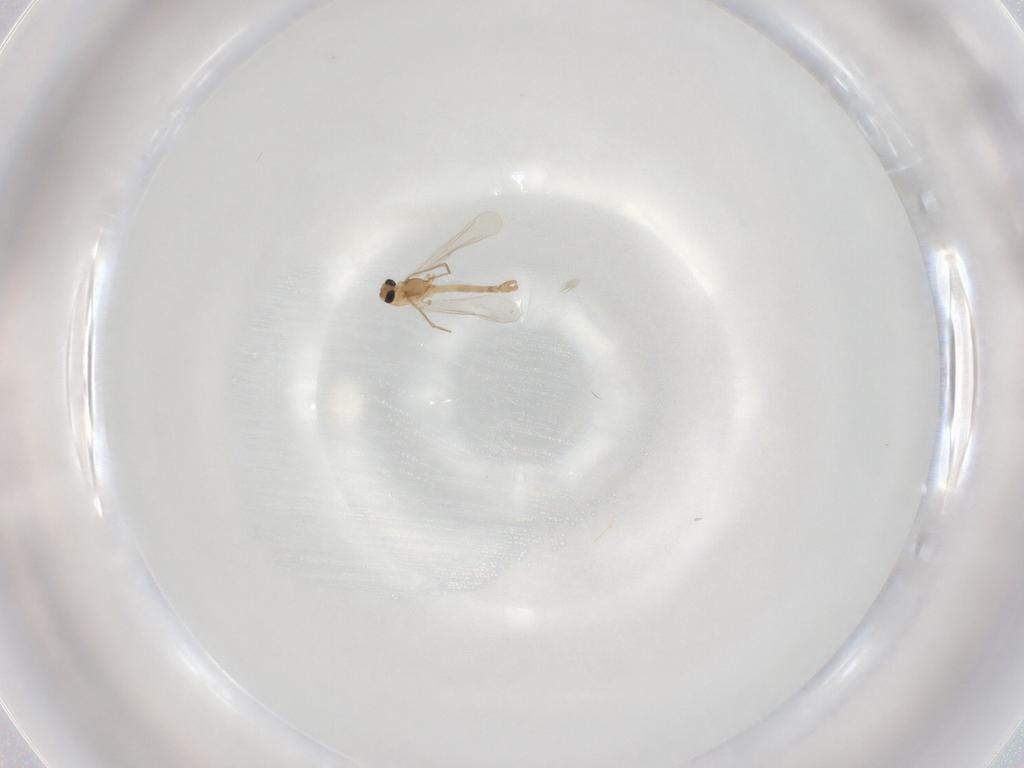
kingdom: Animalia
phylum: Arthropoda
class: Insecta
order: Diptera
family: Chironomidae
